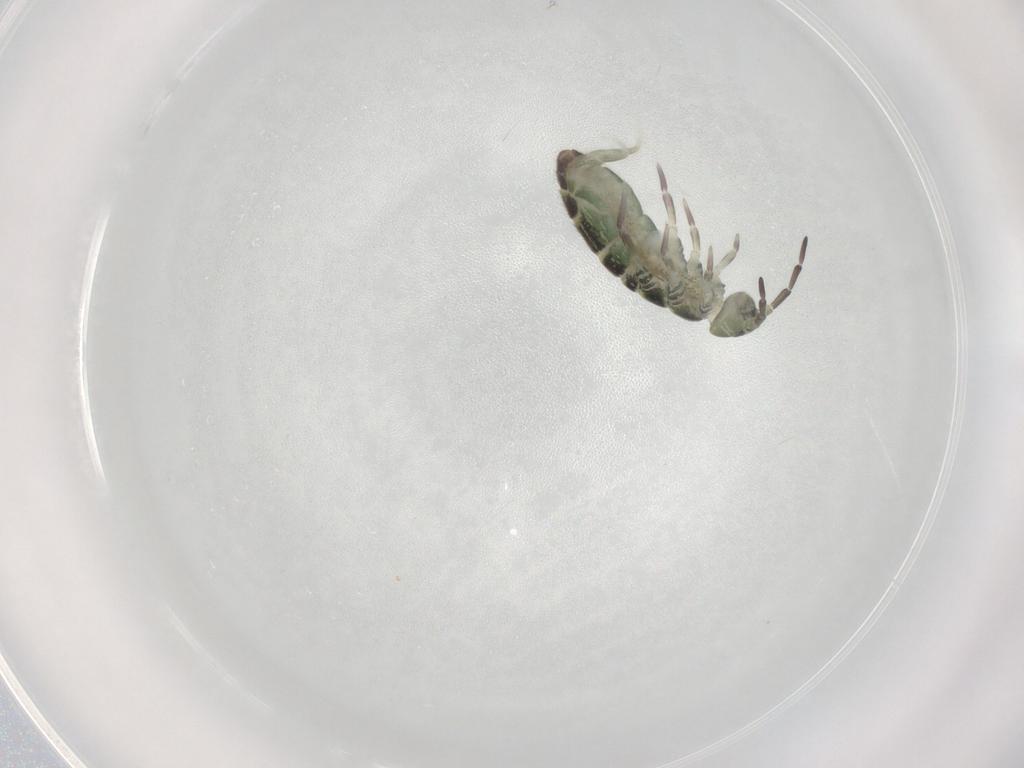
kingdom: Animalia
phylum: Arthropoda
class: Collembola
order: Entomobryomorpha
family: Isotomidae
